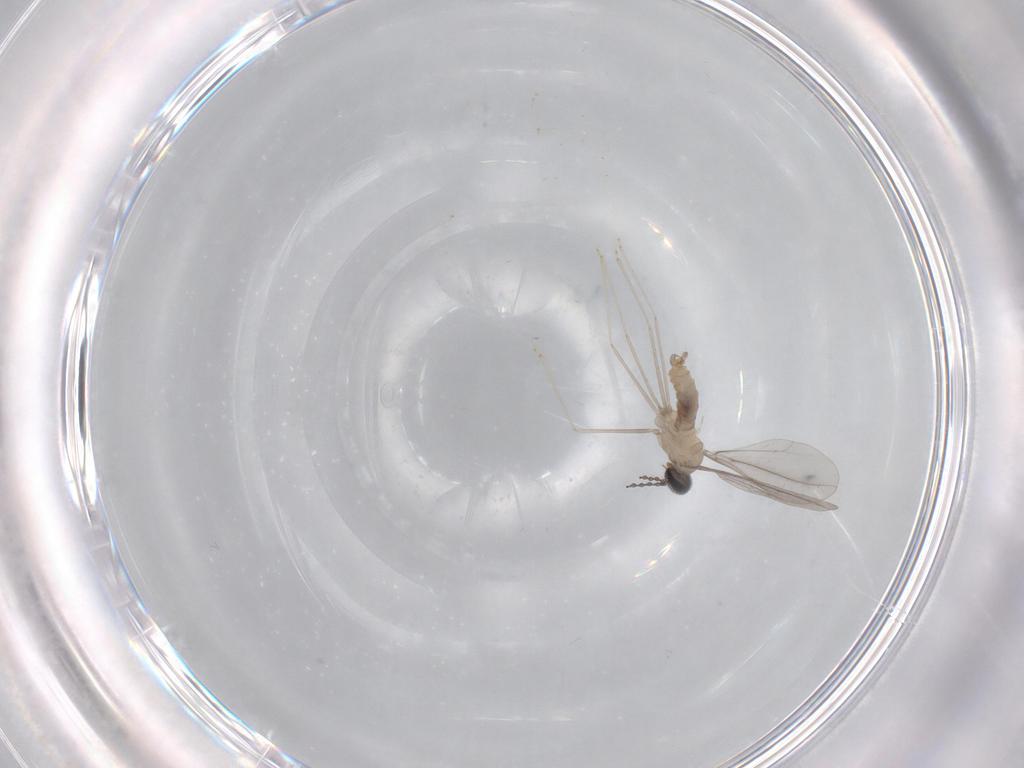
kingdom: Animalia
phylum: Arthropoda
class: Insecta
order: Diptera
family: Cecidomyiidae
